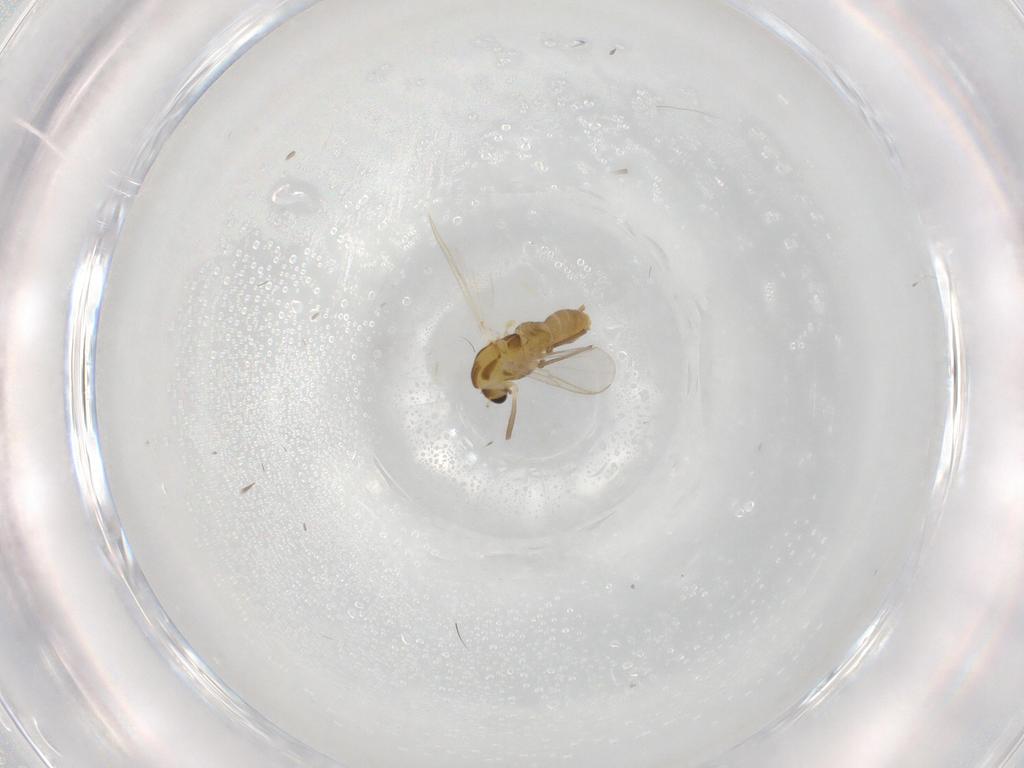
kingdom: Animalia
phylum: Arthropoda
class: Insecta
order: Diptera
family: Chironomidae
